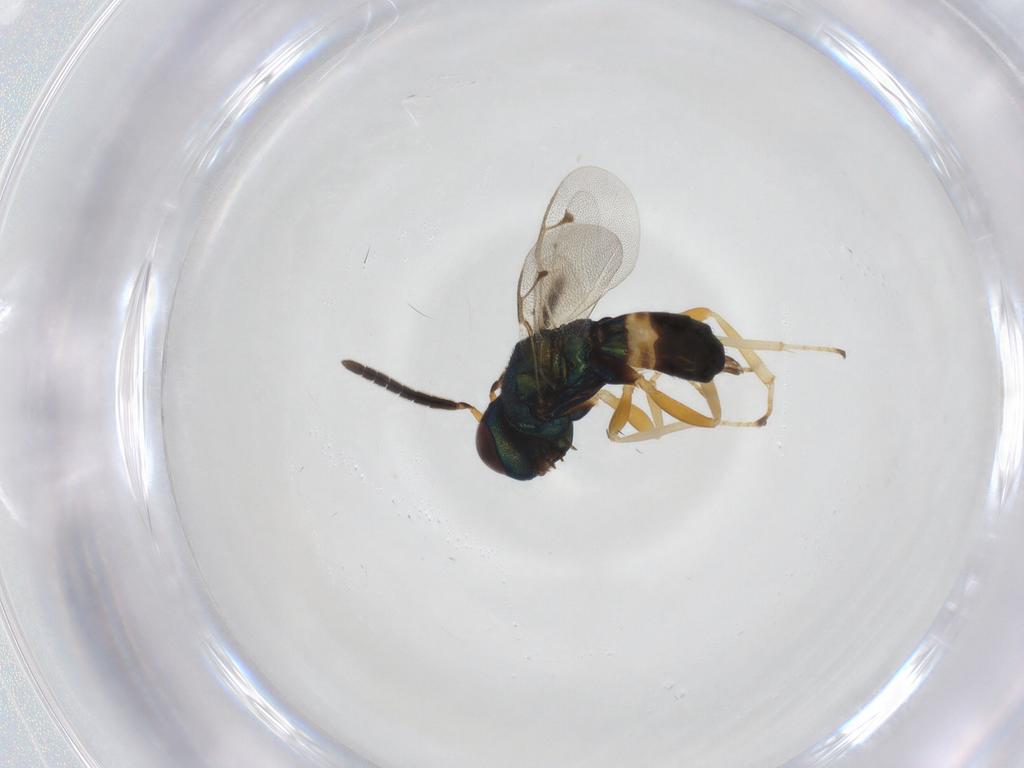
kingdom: Animalia
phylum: Arthropoda
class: Insecta
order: Hymenoptera
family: Pteromalidae
